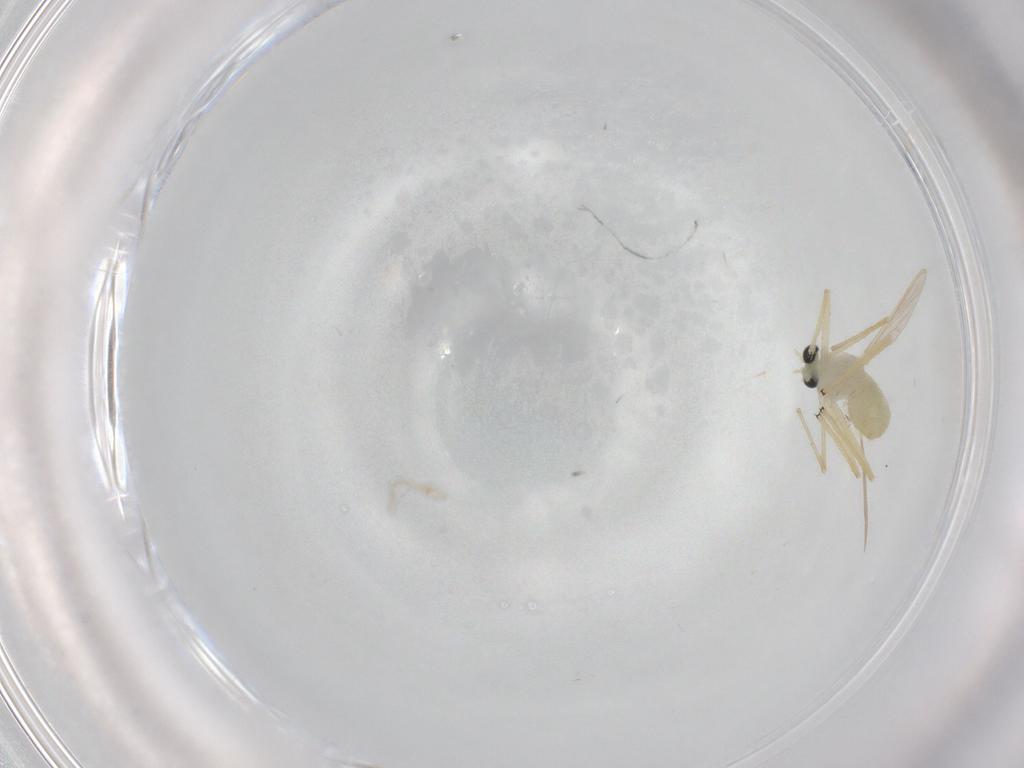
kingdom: Animalia
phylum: Arthropoda
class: Insecta
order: Diptera
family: Chironomidae
